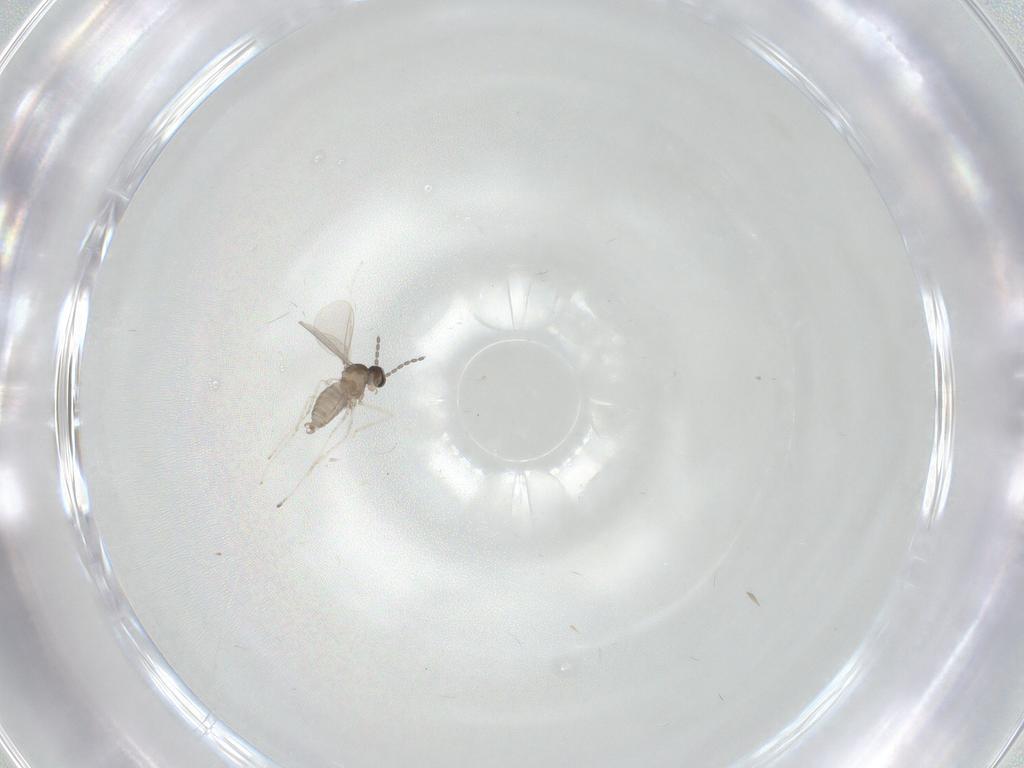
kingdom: Animalia
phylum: Arthropoda
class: Insecta
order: Diptera
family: Cecidomyiidae
